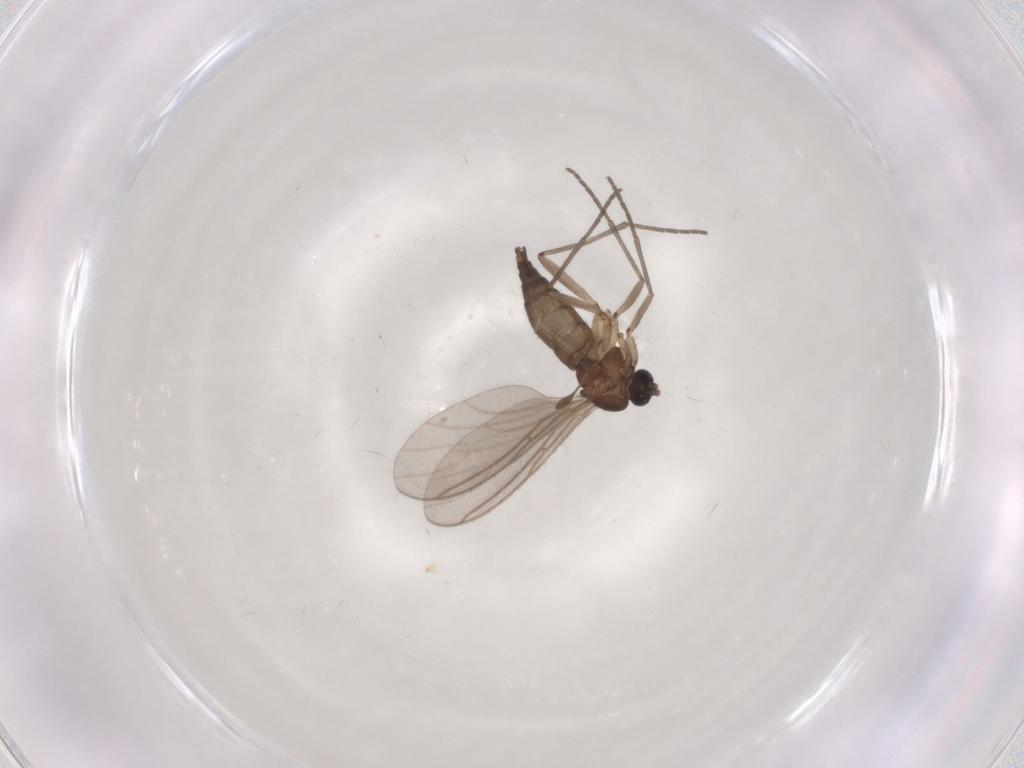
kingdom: Animalia
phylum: Arthropoda
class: Insecta
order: Diptera
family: Sciaridae
